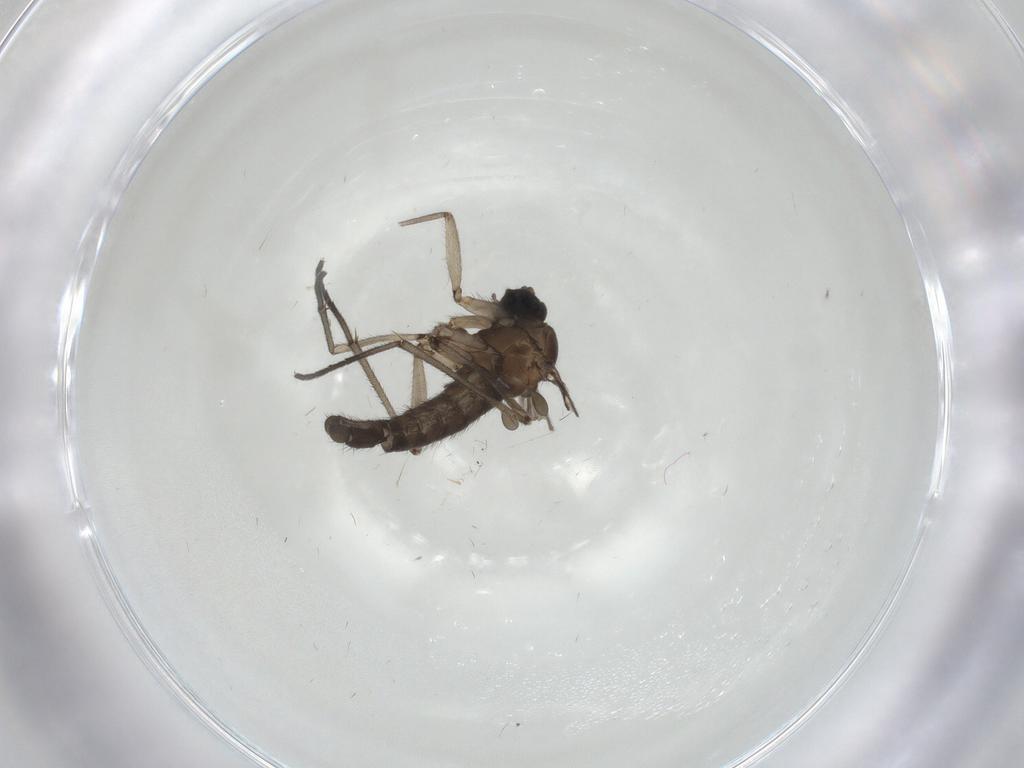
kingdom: Animalia
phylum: Arthropoda
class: Insecta
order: Diptera
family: Sciaridae
